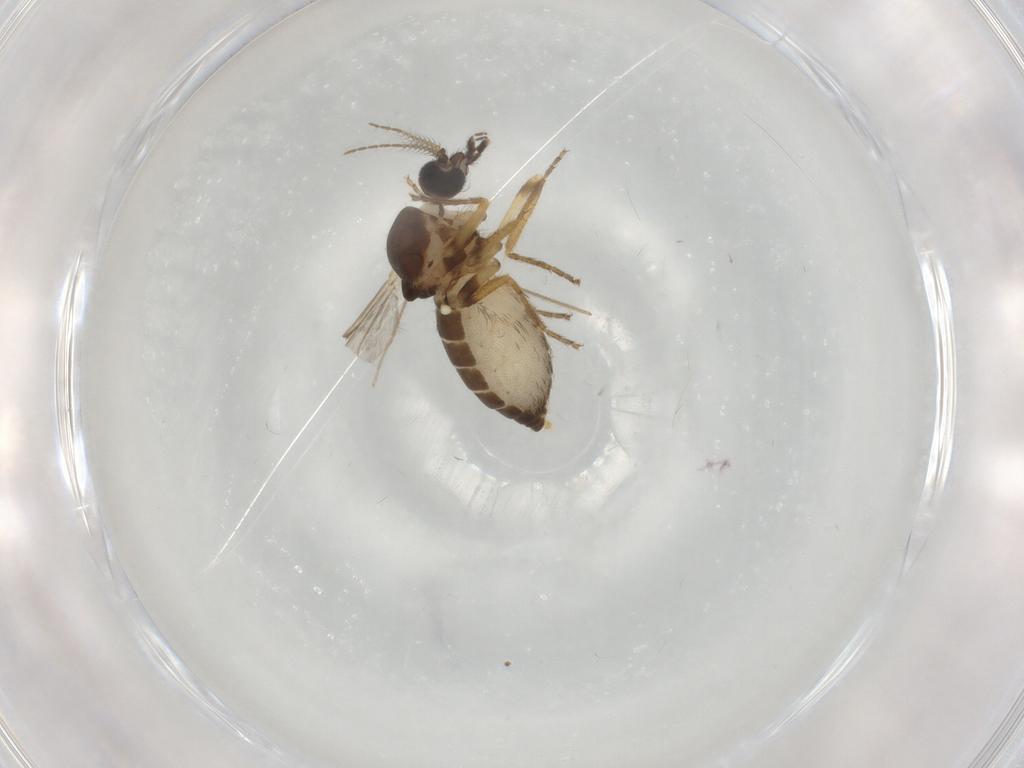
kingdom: Animalia
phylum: Arthropoda
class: Insecta
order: Diptera
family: Ceratopogonidae
